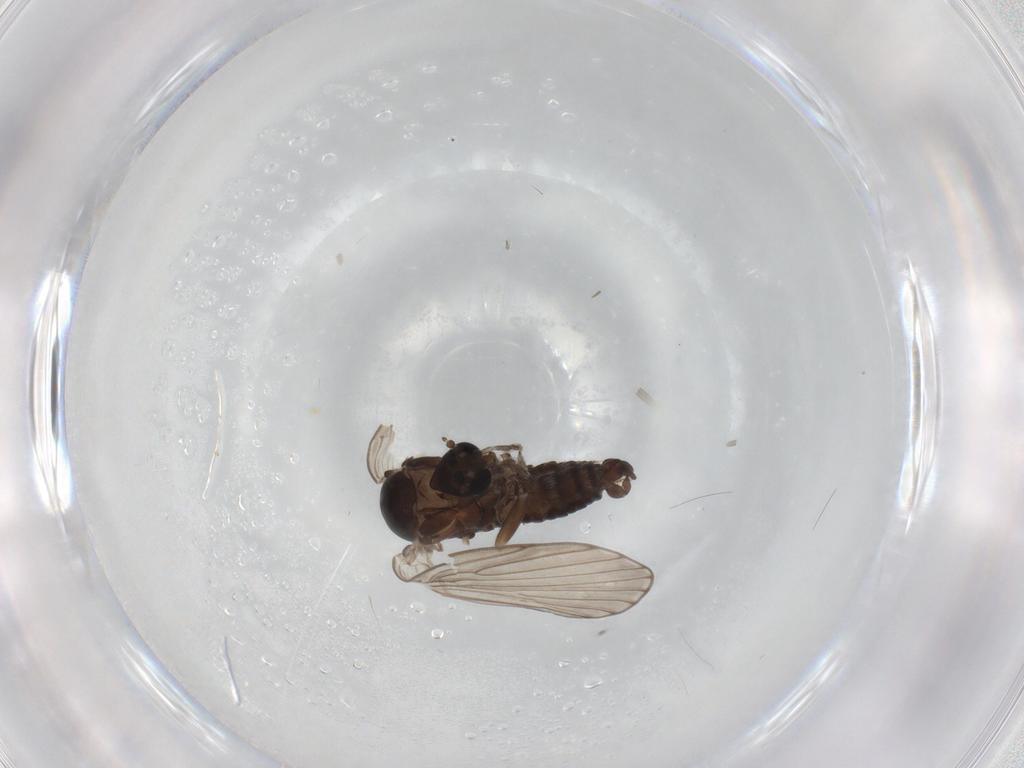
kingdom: Animalia
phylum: Arthropoda
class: Insecta
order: Diptera
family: Psychodidae
